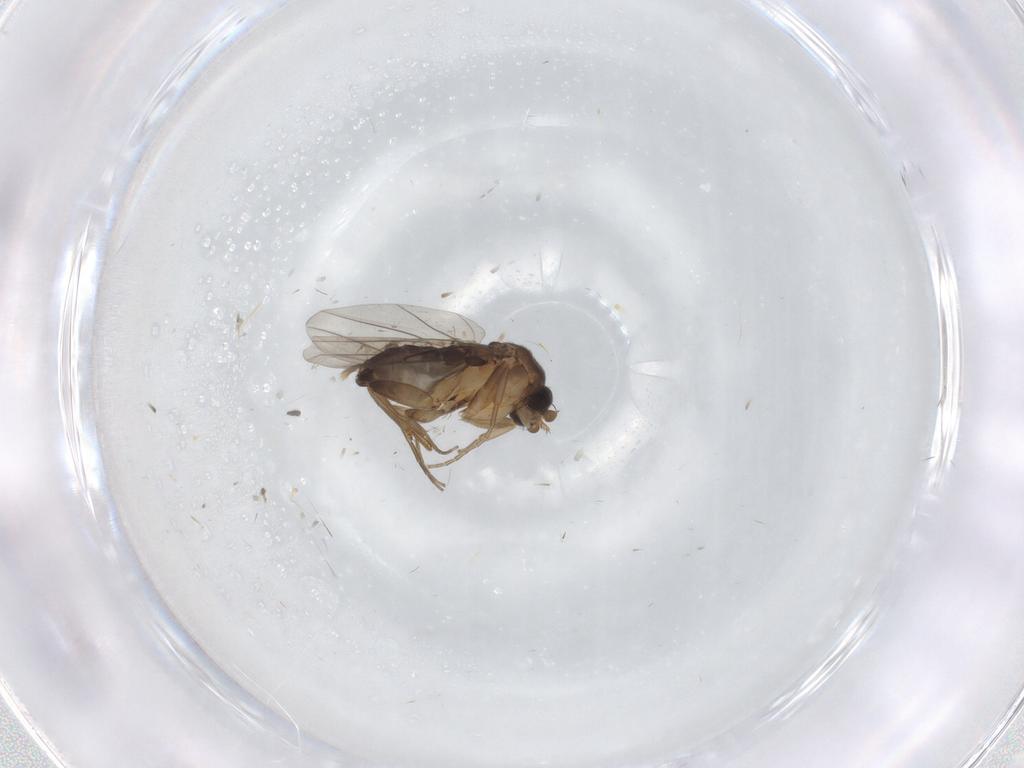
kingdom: Animalia
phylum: Arthropoda
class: Insecta
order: Diptera
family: Phoridae
